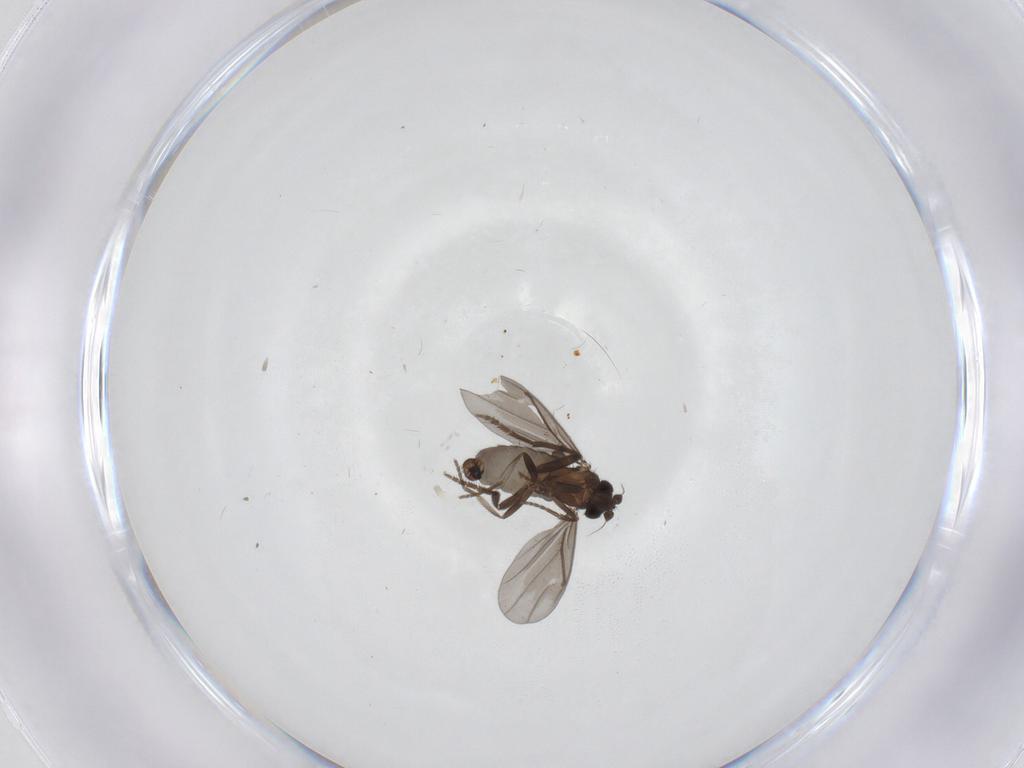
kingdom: Animalia
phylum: Arthropoda
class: Insecta
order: Diptera
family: Phoridae
